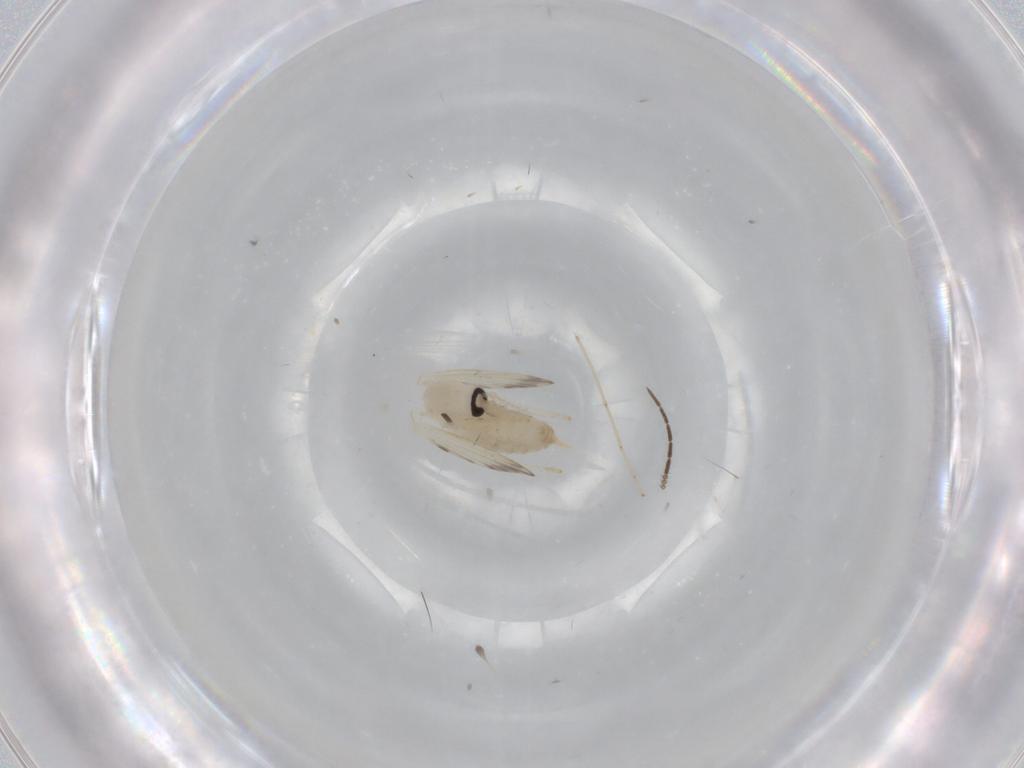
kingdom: Animalia
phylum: Arthropoda
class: Insecta
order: Diptera
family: Psychodidae
